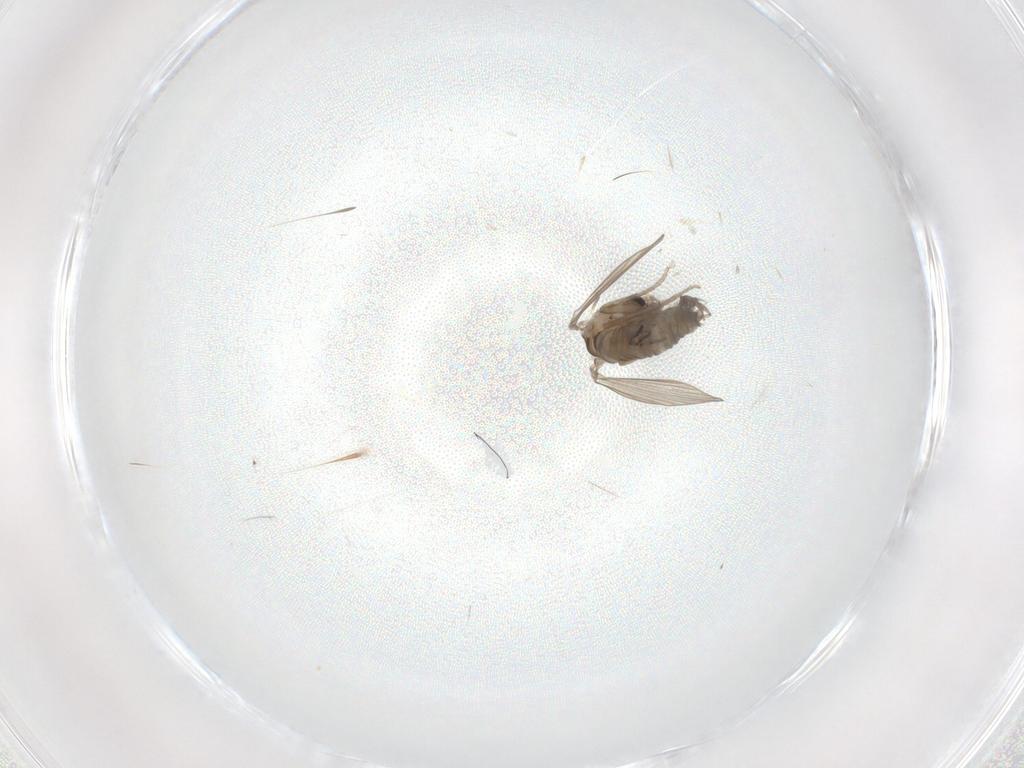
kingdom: Animalia
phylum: Arthropoda
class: Insecta
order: Diptera
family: Psychodidae
